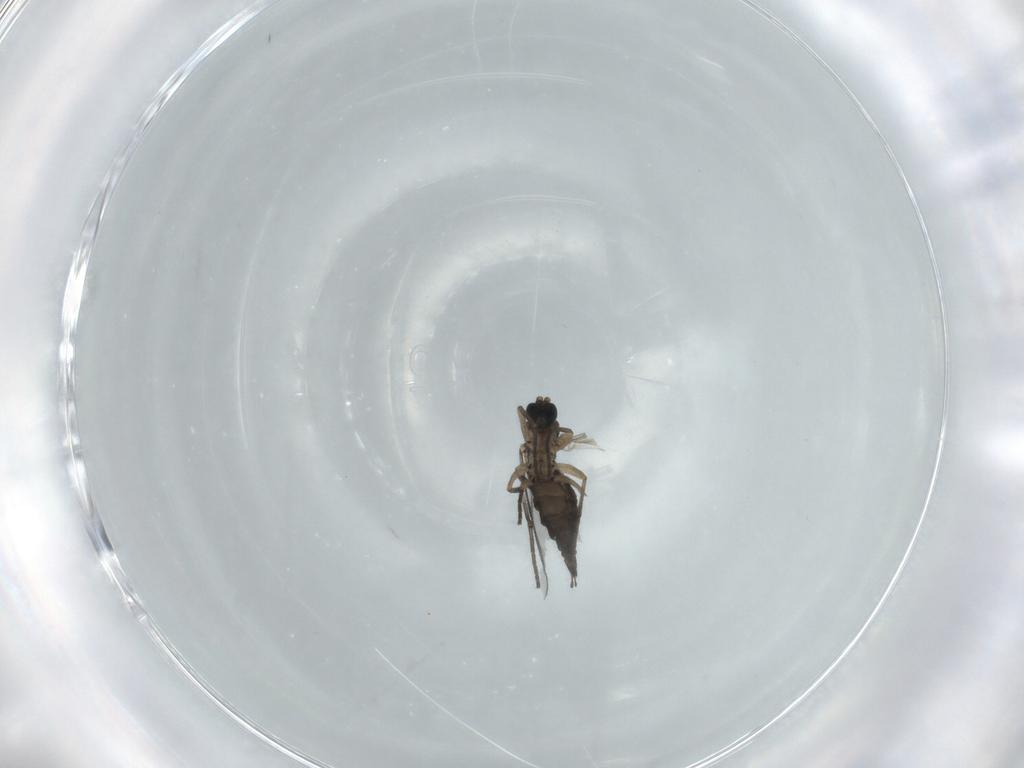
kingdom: Animalia
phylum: Arthropoda
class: Insecta
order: Diptera
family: Sciaridae
